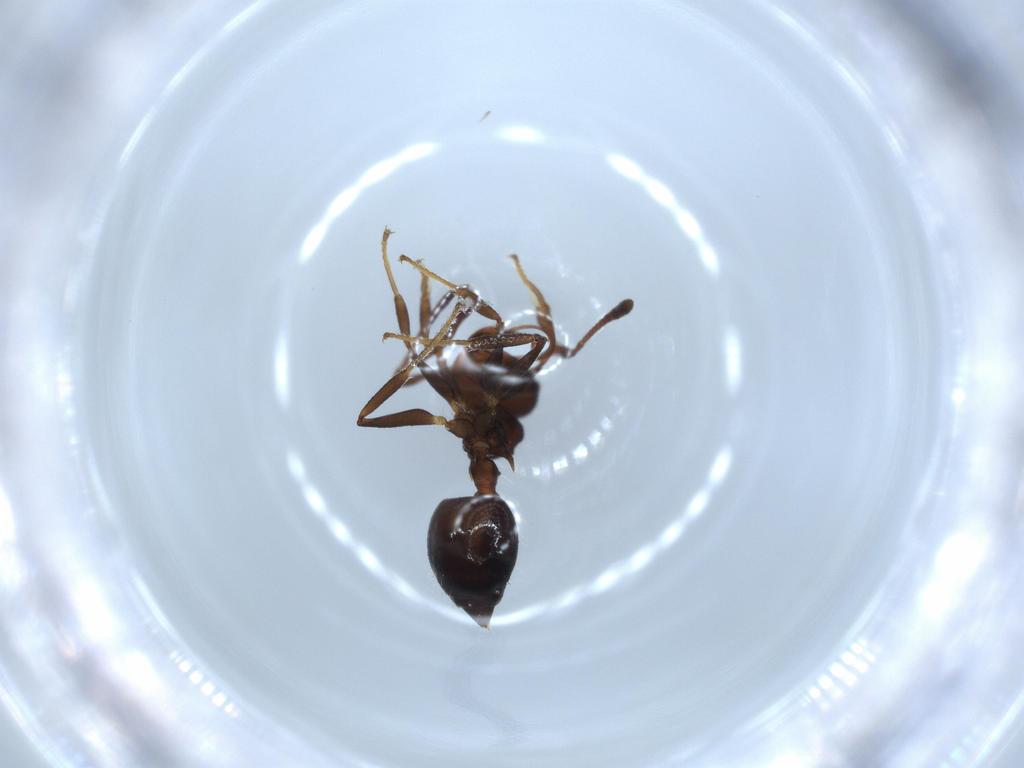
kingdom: Animalia
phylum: Arthropoda
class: Insecta
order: Hymenoptera
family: Formicidae
